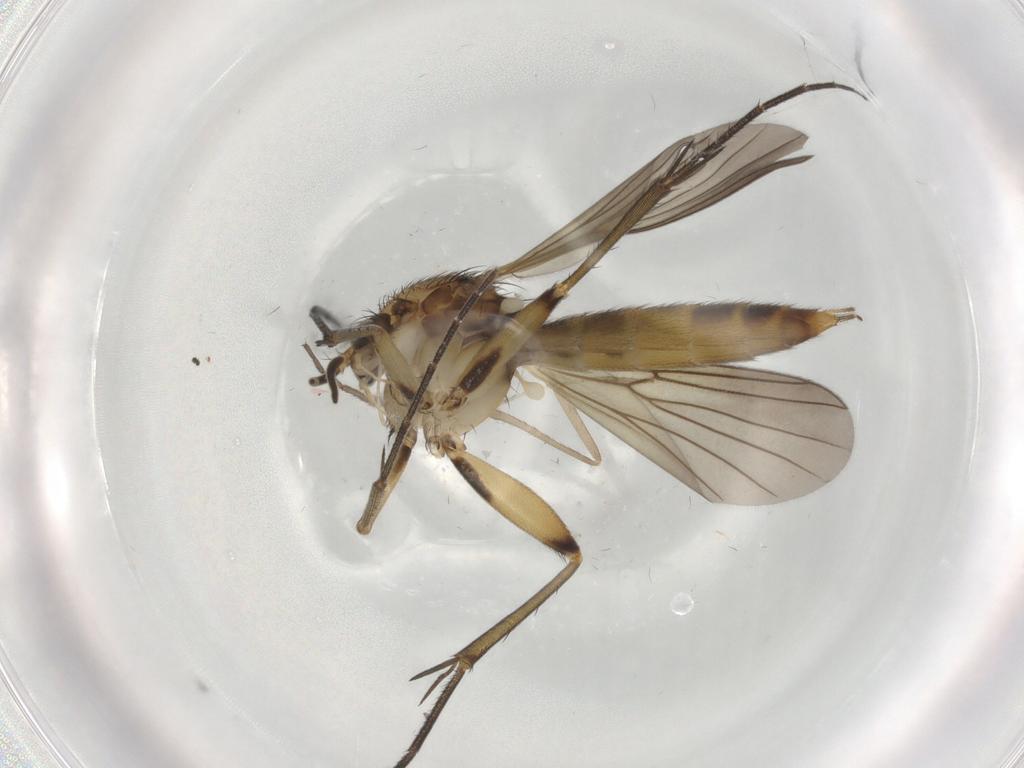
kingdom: Animalia
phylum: Arthropoda
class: Insecta
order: Diptera
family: Mycetophilidae
